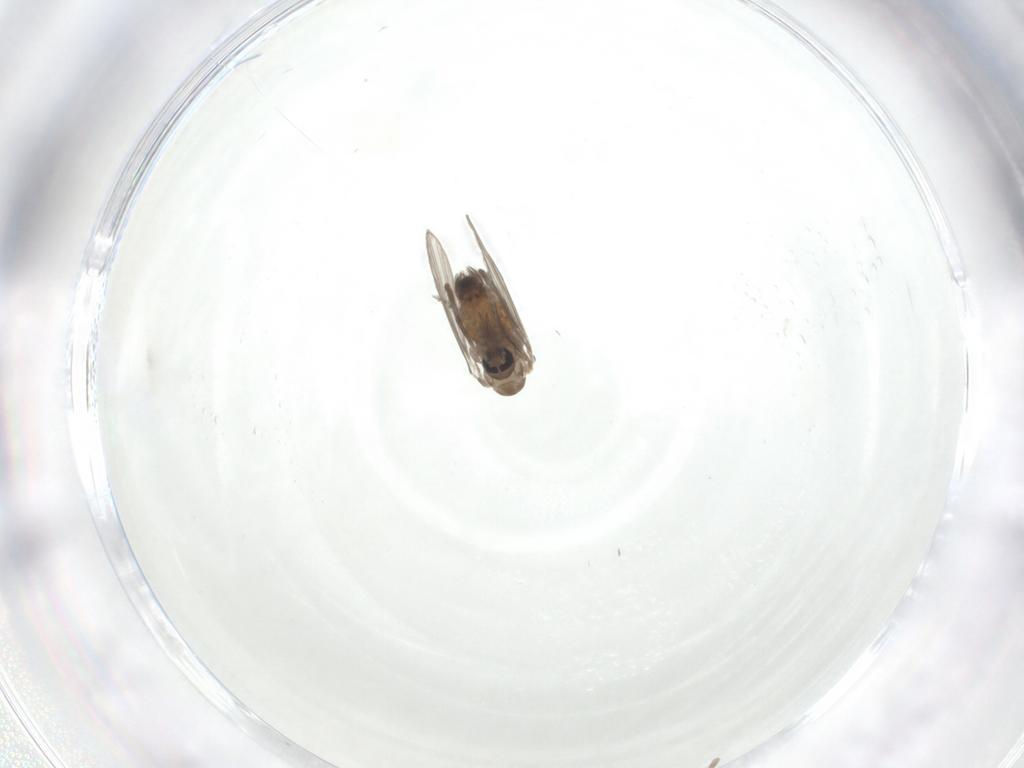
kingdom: Animalia
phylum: Arthropoda
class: Insecta
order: Diptera
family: Psychodidae
